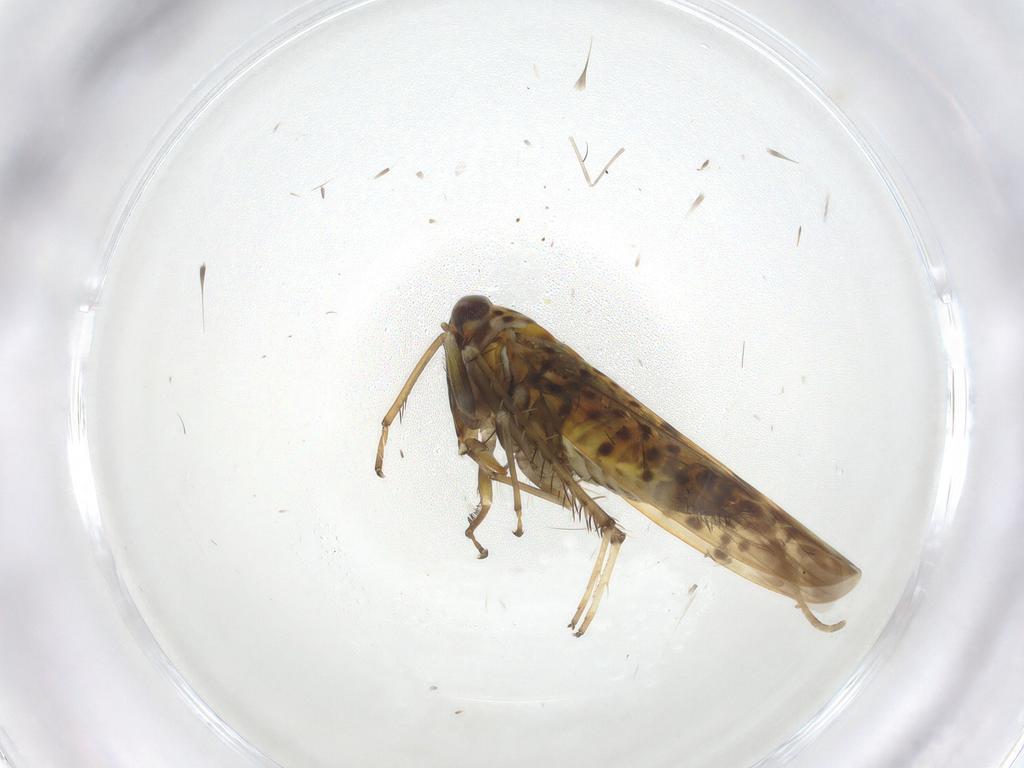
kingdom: Animalia
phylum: Arthropoda
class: Insecta
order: Hemiptera
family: Cicadellidae
